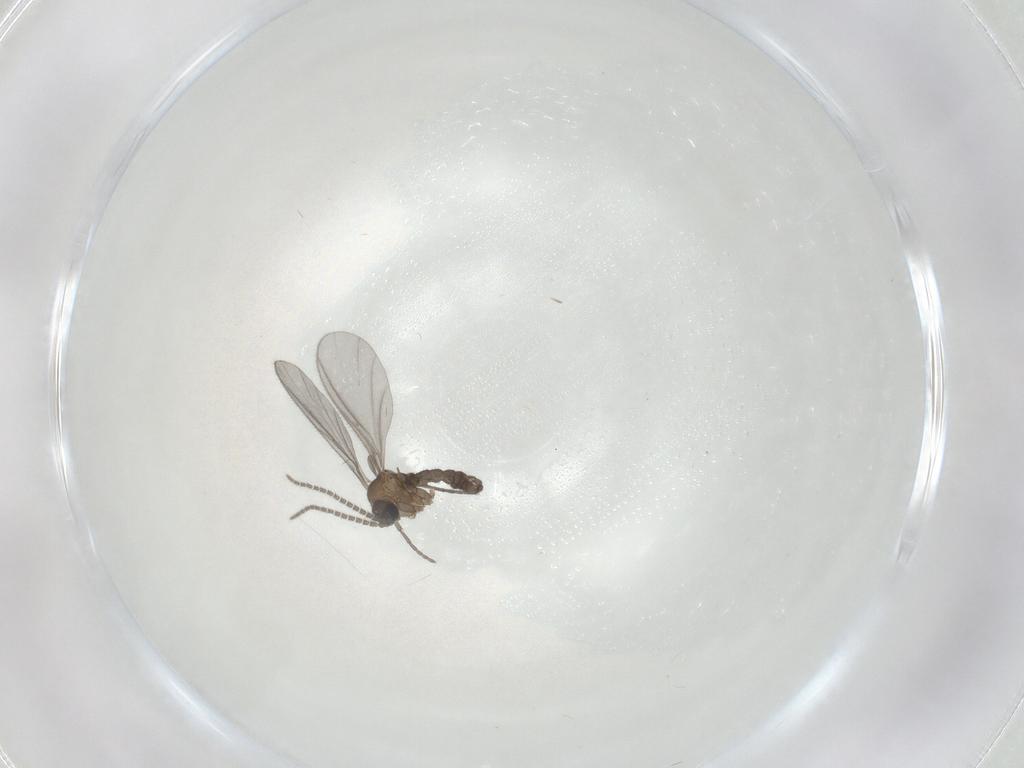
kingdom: Animalia
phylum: Arthropoda
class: Insecta
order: Diptera
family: Sciaridae
